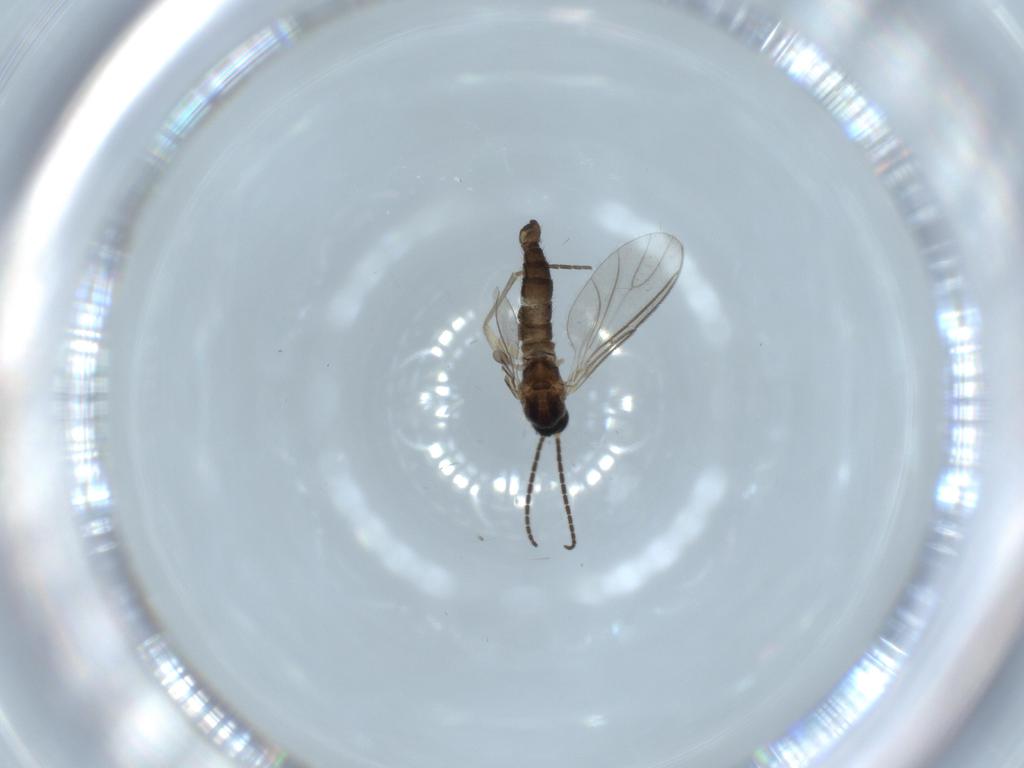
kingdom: Animalia
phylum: Arthropoda
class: Insecta
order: Diptera
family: Sciaridae
